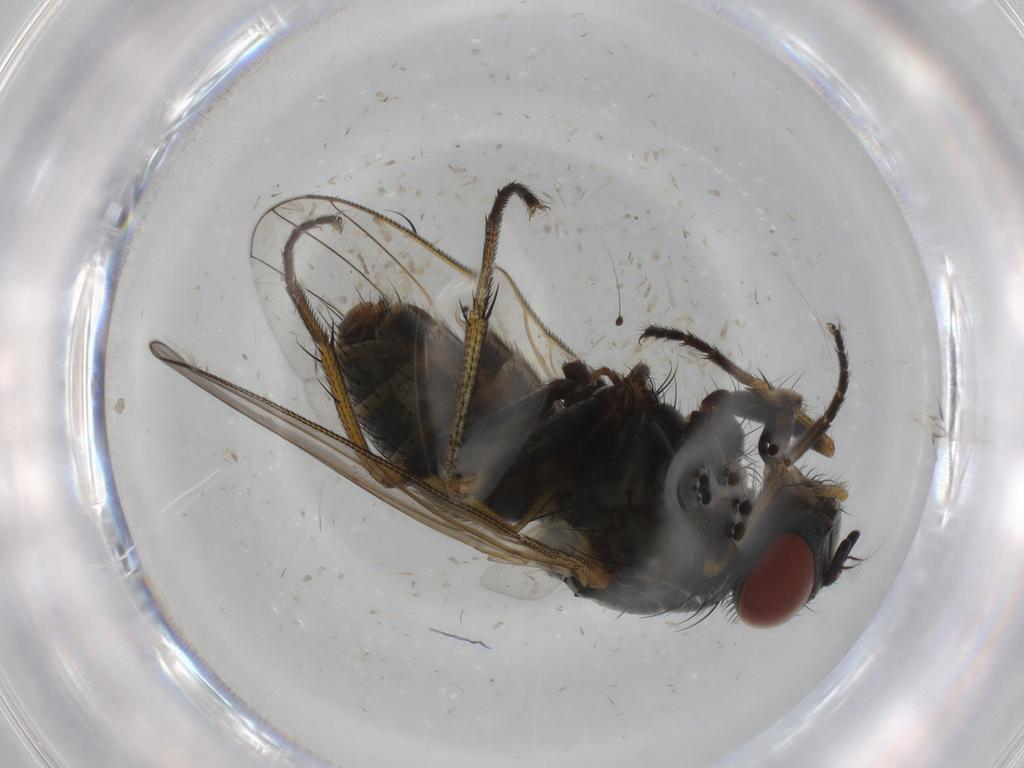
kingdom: Animalia
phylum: Arthropoda
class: Insecta
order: Diptera
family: Muscidae
